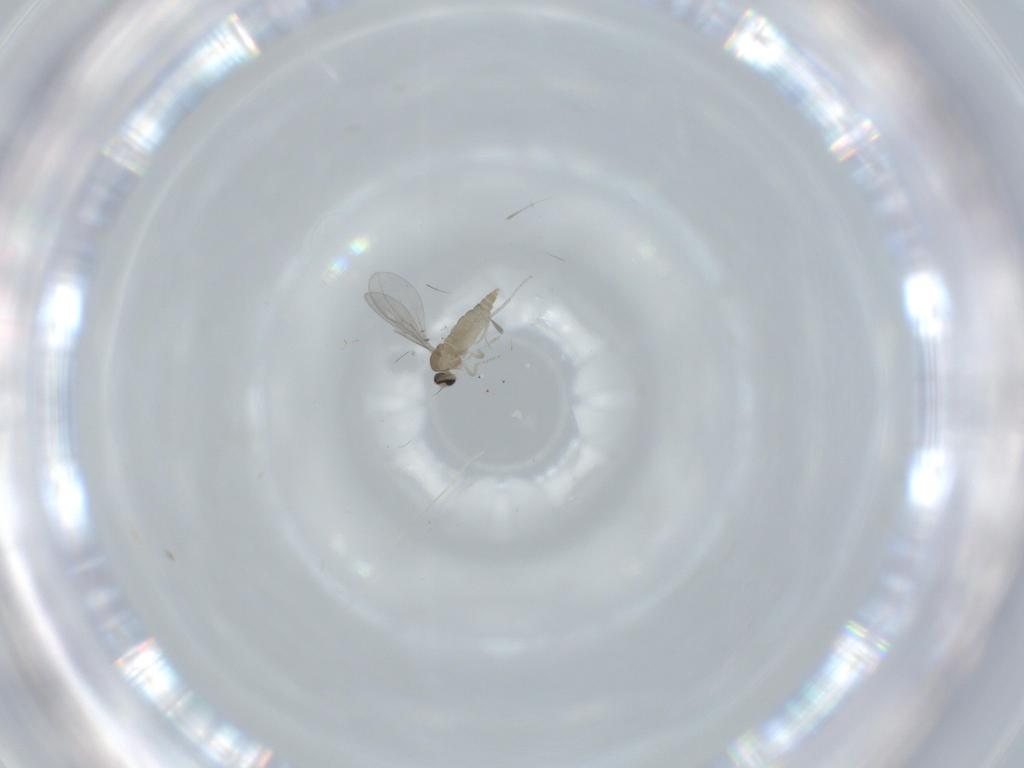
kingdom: Animalia
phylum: Arthropoda
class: Insecta
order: Diptera
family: Cecidomyiidae
